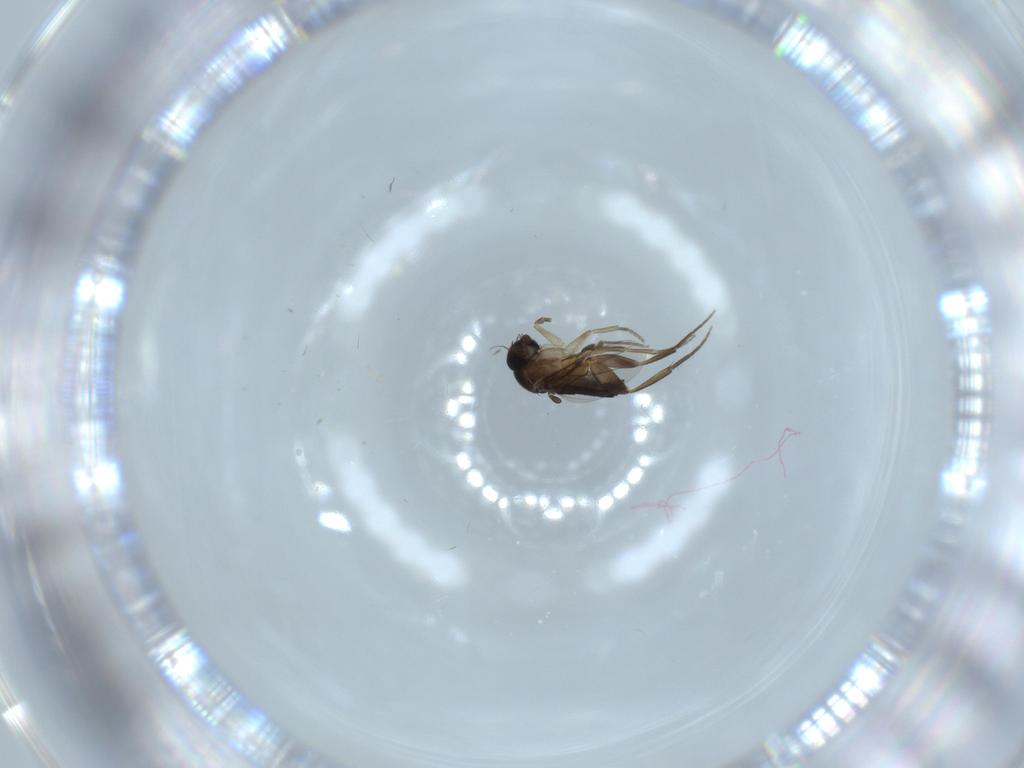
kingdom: Animalia
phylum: Arthropoda
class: Insecta
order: Diptera
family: Phoridae
